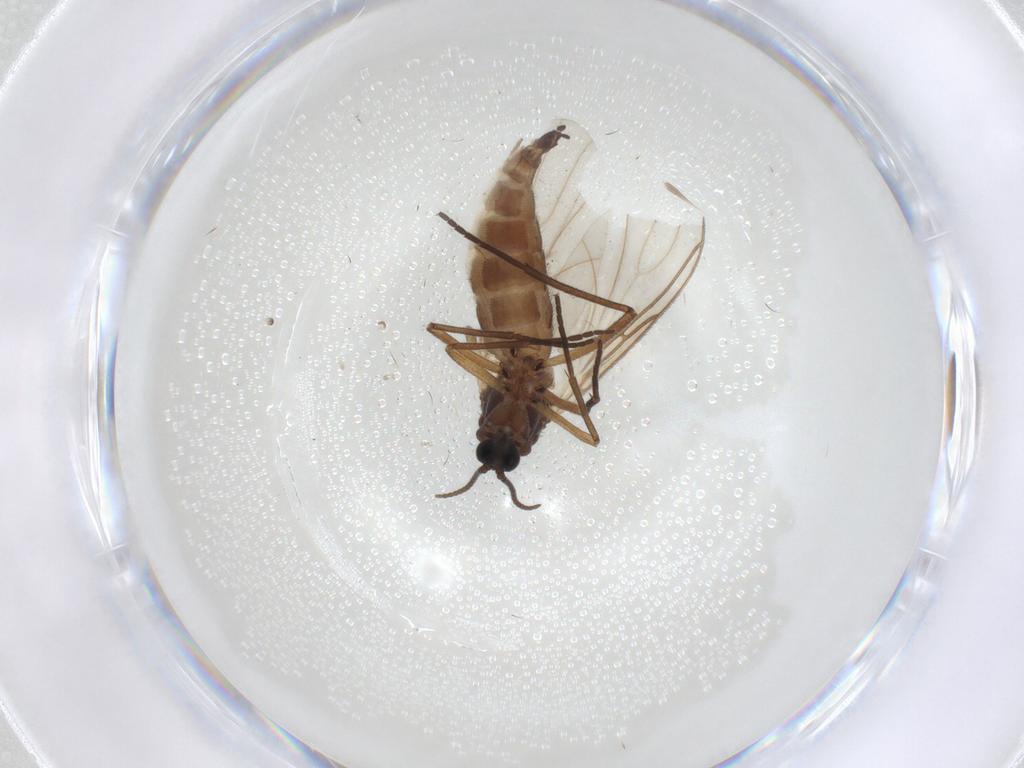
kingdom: Animalia
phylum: Arthropoda
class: Insecta
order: Diptera
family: Sciaridae
